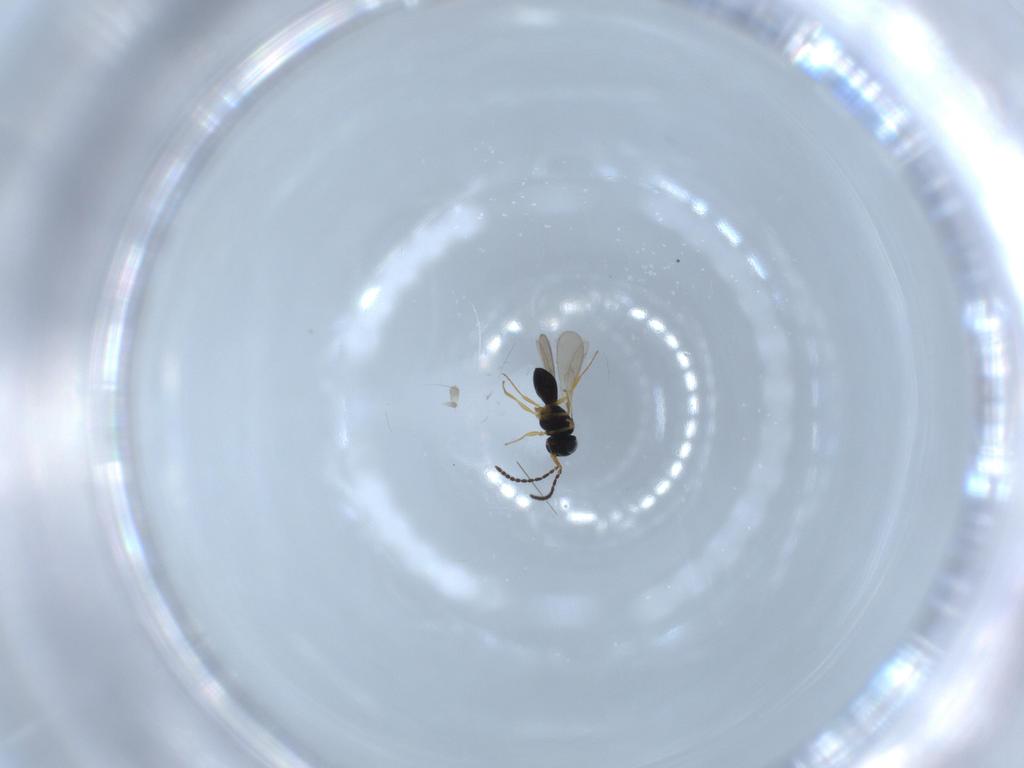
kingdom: Animalia
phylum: Arthropoda
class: Insecta
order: Hymenoptera
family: Scelionidae
